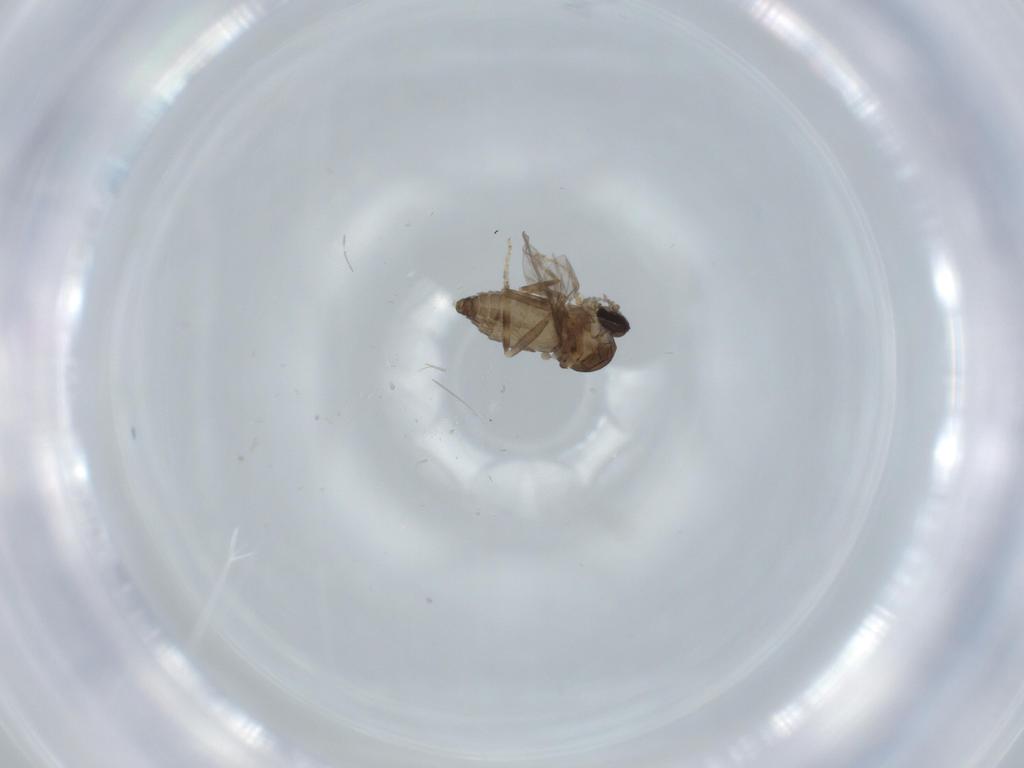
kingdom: Animalia
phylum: Arthropoda
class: Insecta
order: Diptera
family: Ceratopogonidae
